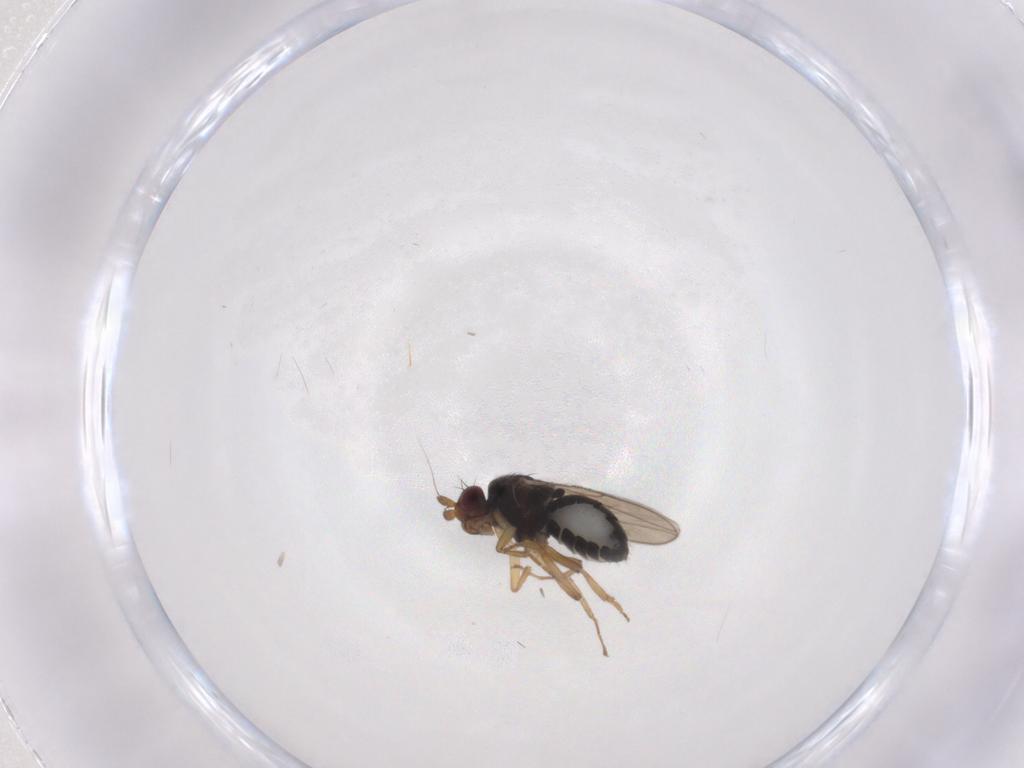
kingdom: Animalia
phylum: Arthropoda
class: Insecta
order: Diptera
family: Sphaeroceridae
